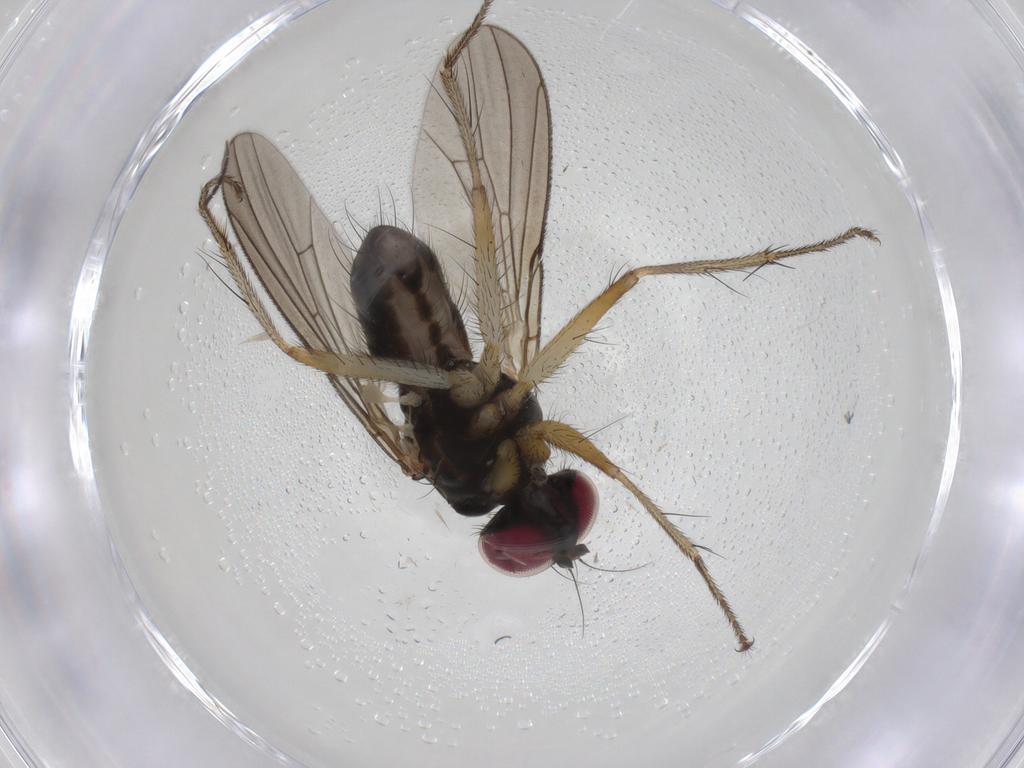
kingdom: Animalia
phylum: Arthropoda
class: Insecta
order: Diptera
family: Anthomyiidae
